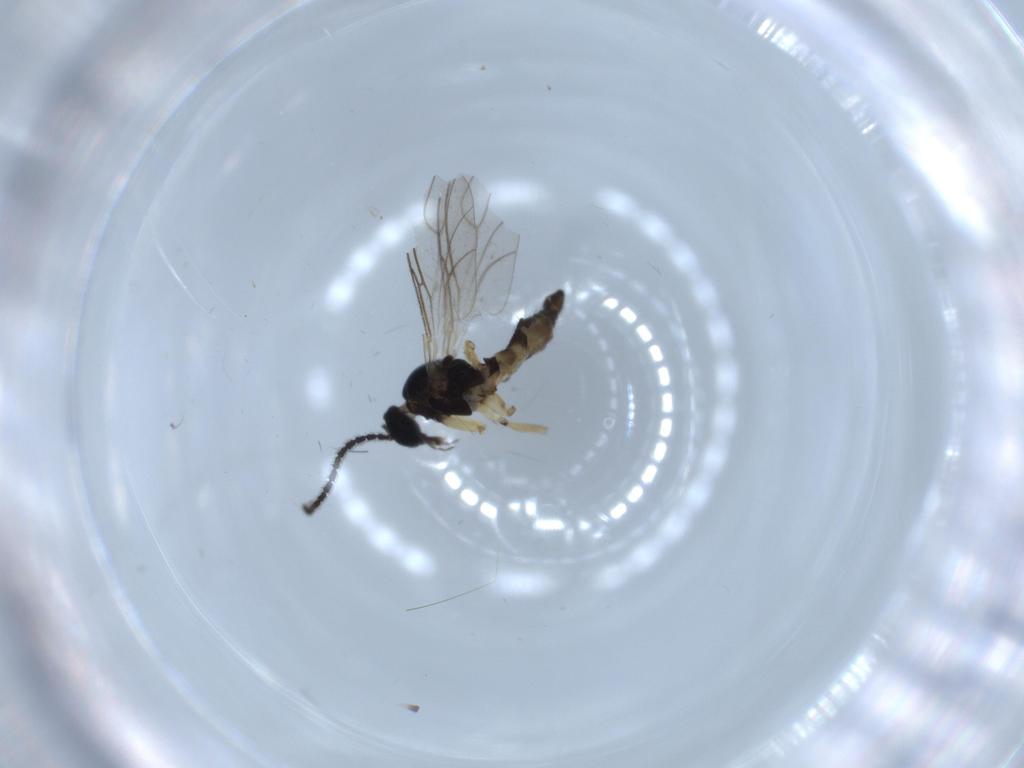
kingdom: Animalia
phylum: Arthropoda
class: Insecta
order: Diptera
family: Sciaridae
